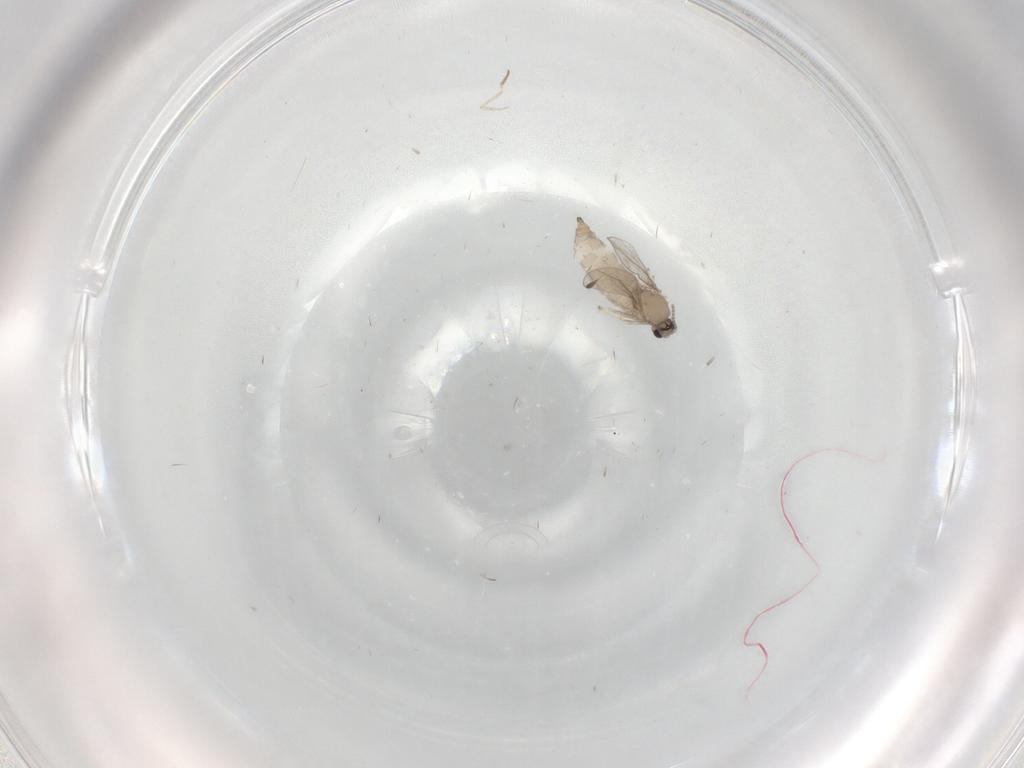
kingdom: Animalia
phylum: Arthropoda
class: Insecta
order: Diptera
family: Cecidomyiidae
